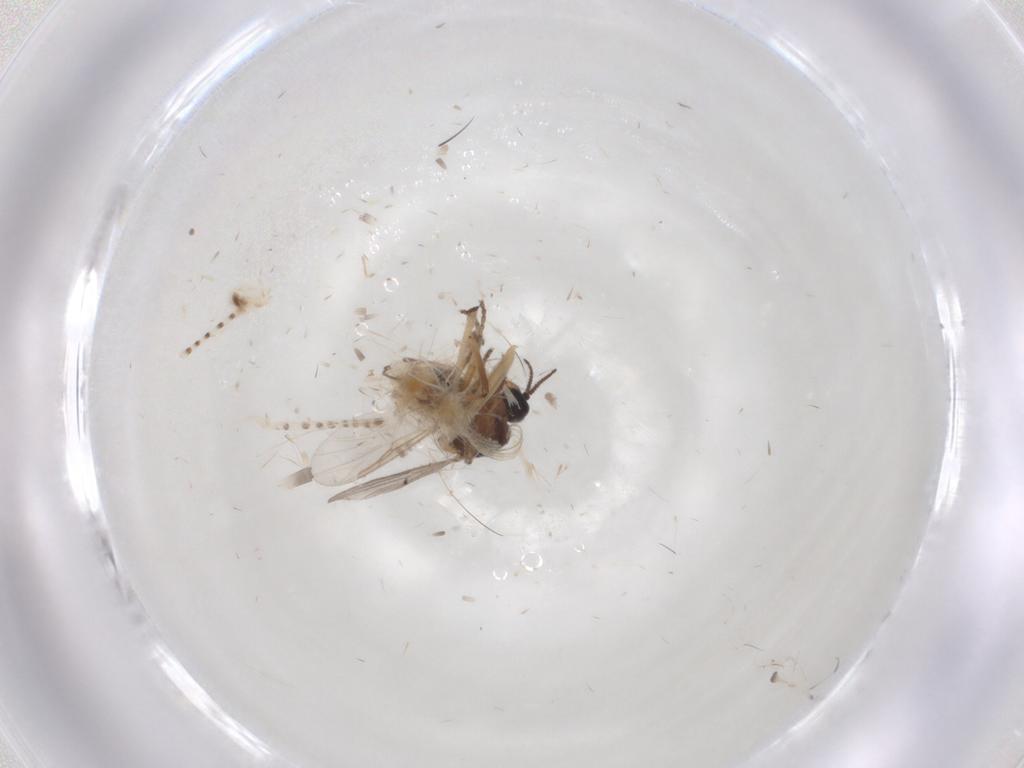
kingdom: Animalia
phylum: Arthropoda
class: Insecta
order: Diptera
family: Ceratopogonidae
